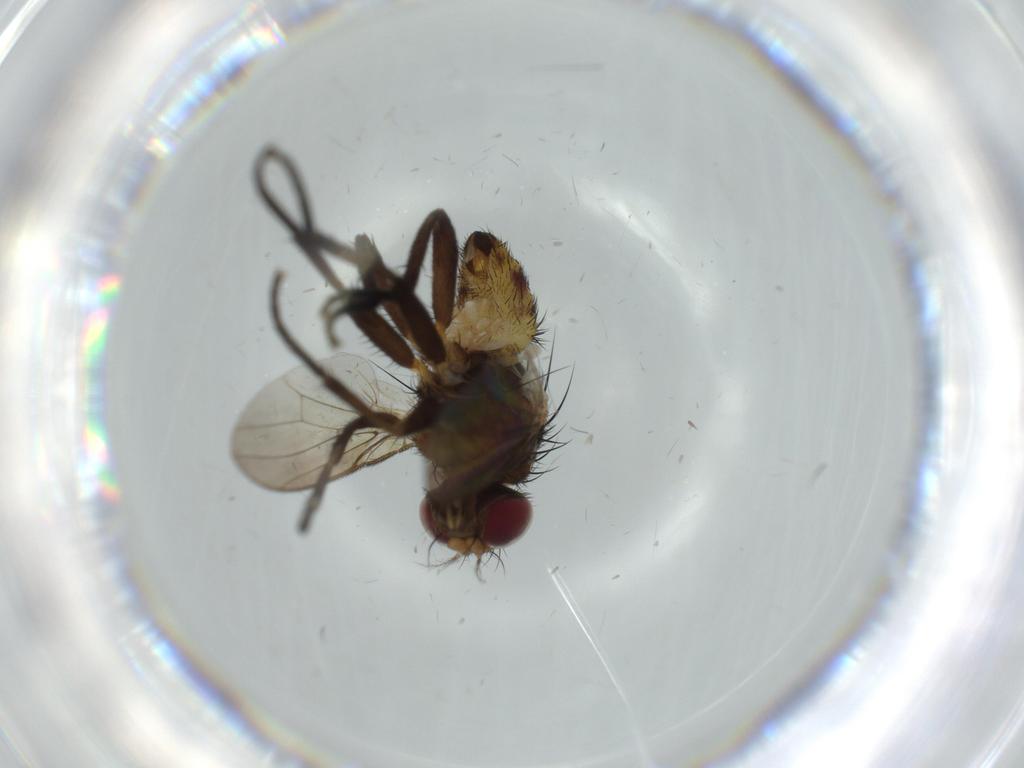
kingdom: Animalia
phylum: Arthropoda
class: Insecta
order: Diptera
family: Anthomyiidae
